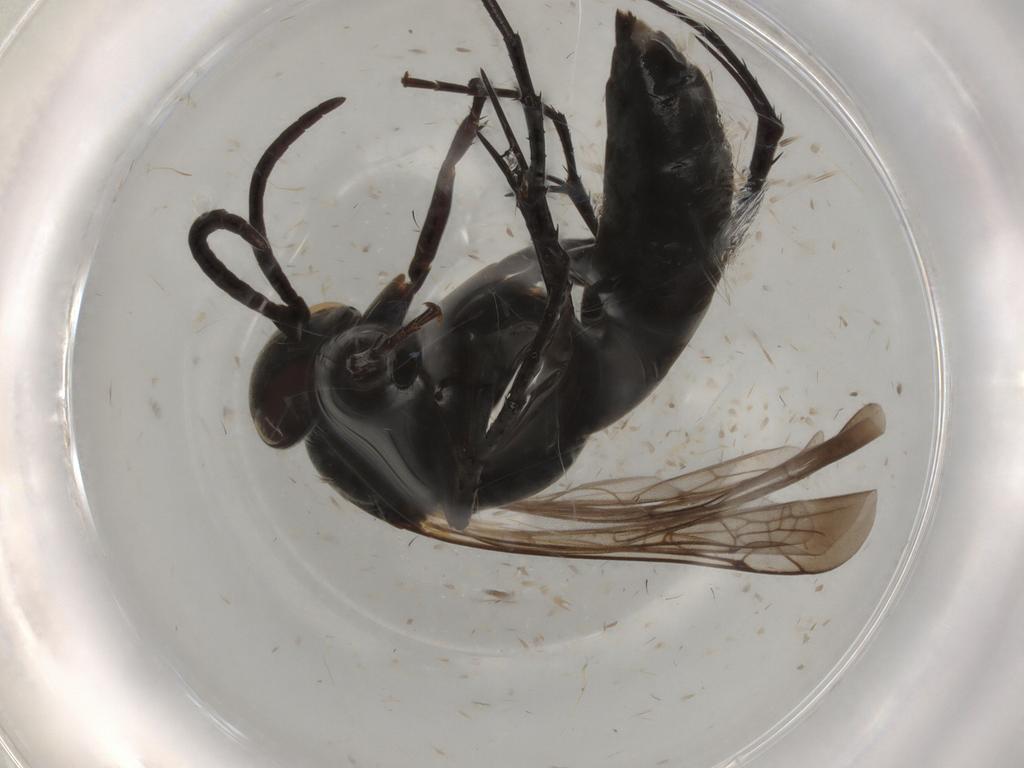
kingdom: Animalia
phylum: Arthropoda
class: Insecta
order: Hymenoptera
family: Pompilidae
